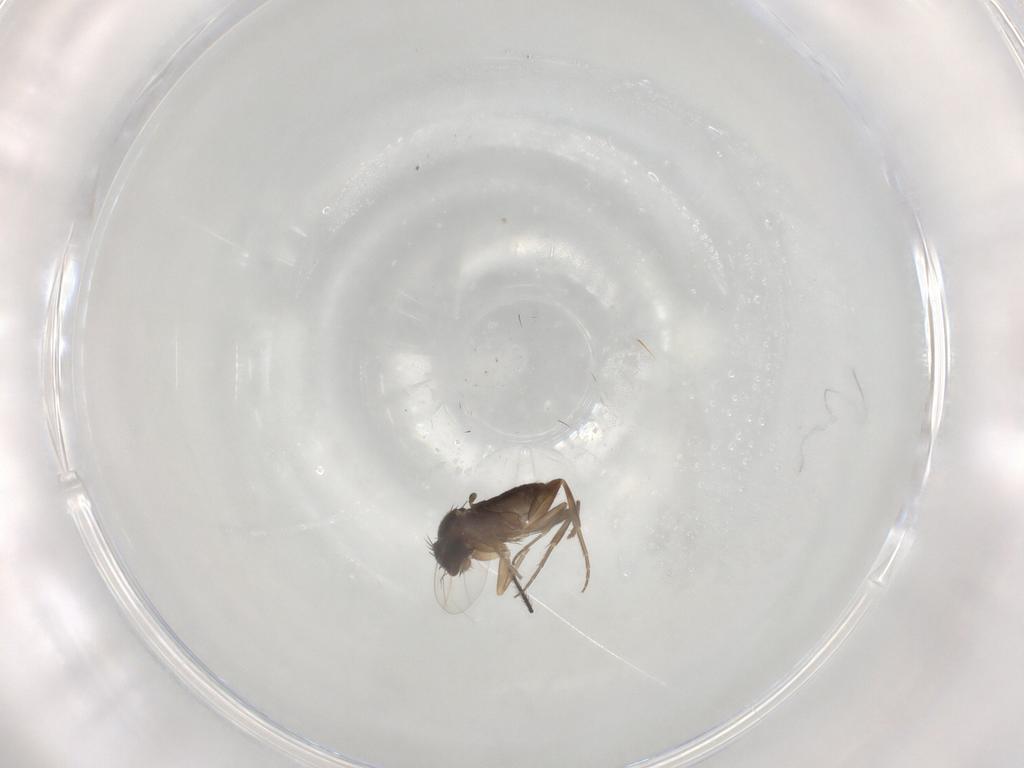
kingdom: Animalia
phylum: Arthropoda
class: Insecta
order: Diptera
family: Phoridae
